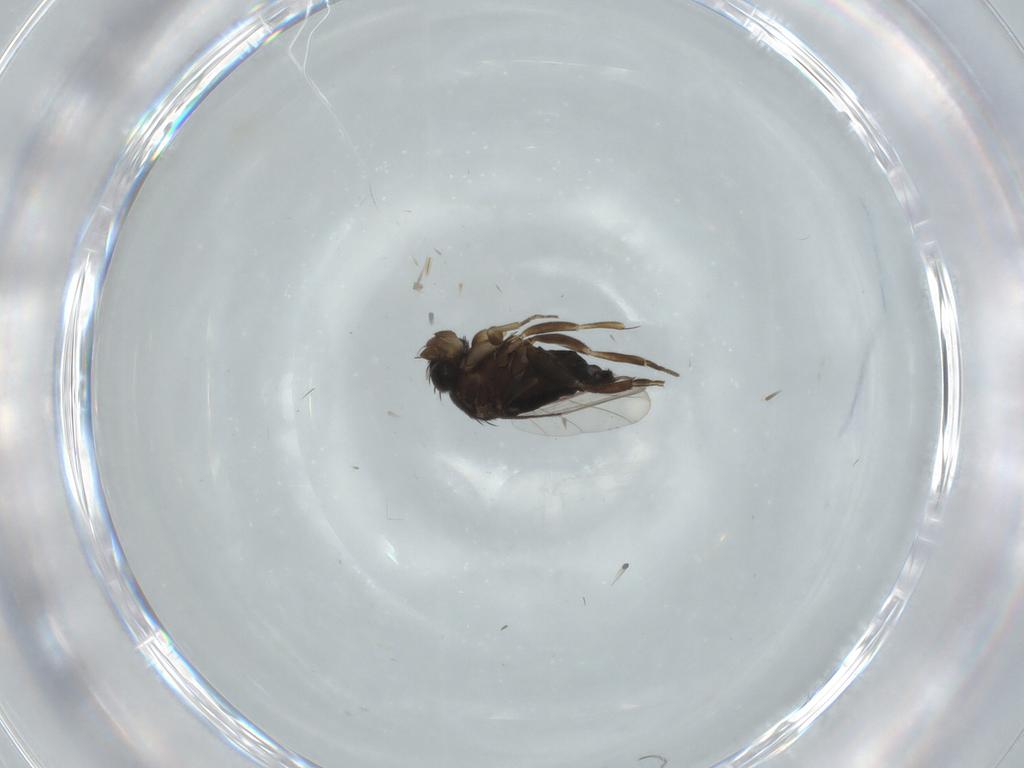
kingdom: Animalia
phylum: Arthropoda
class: Insecta
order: Diptera
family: Phoridae
